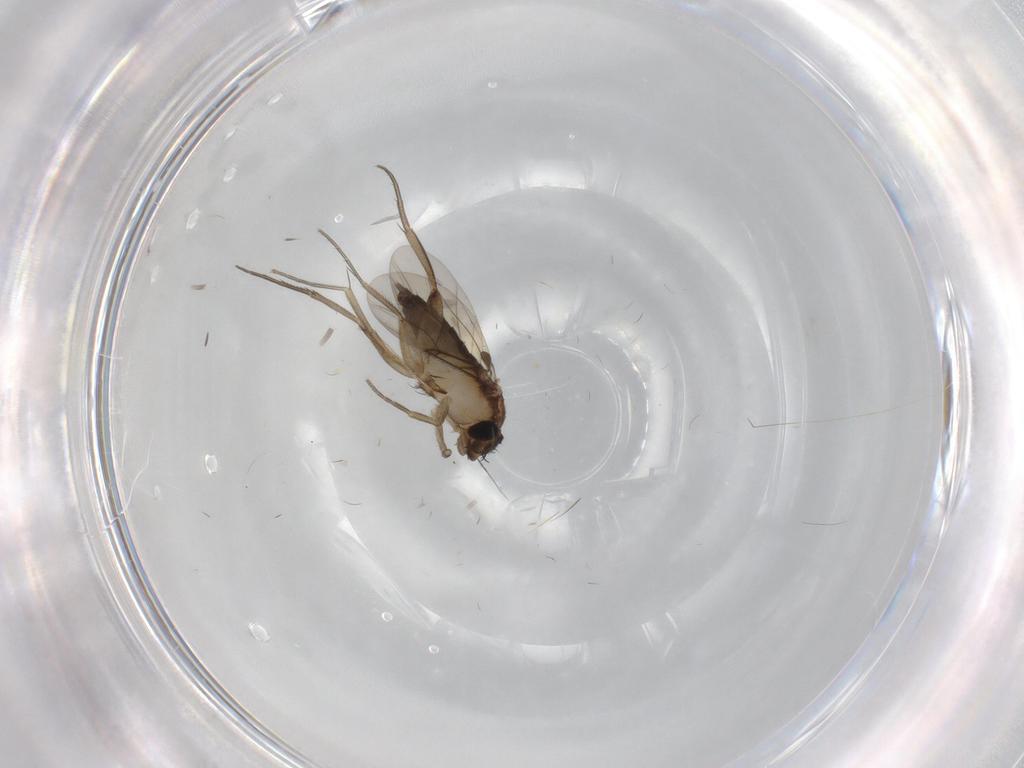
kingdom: Animalia
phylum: Arthropoda
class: Insecta
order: Diptera
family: Phoridae
